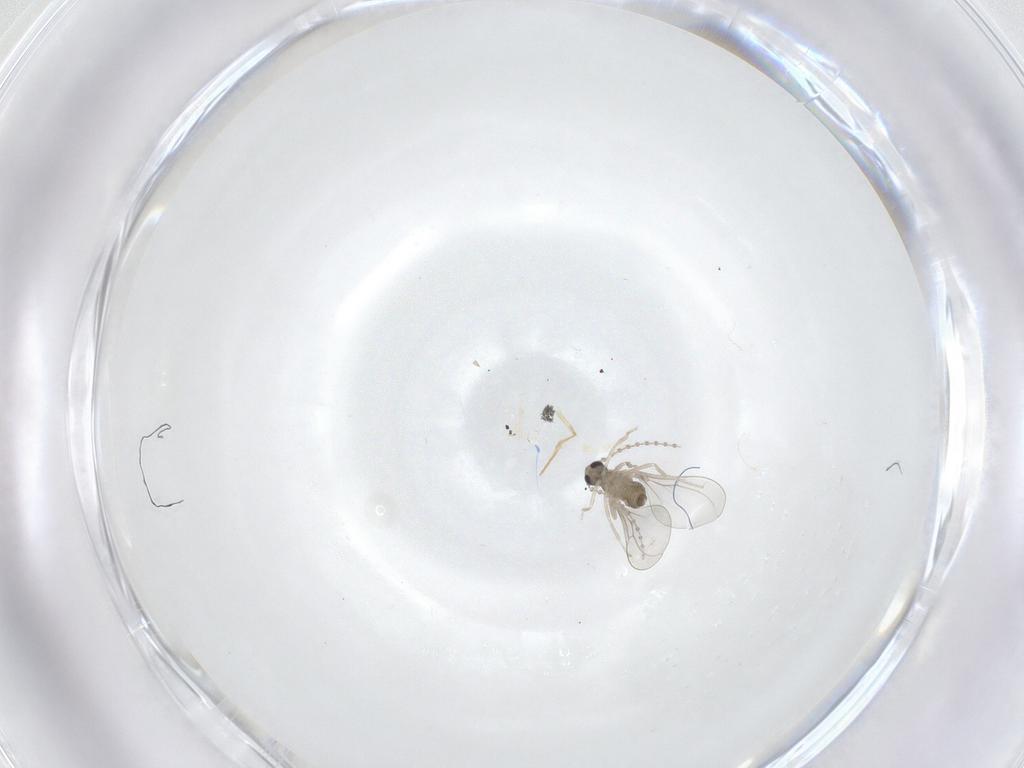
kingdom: Animalia
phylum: Arthropoda
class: Insecta
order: Diptera
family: Cecidomyiidae
